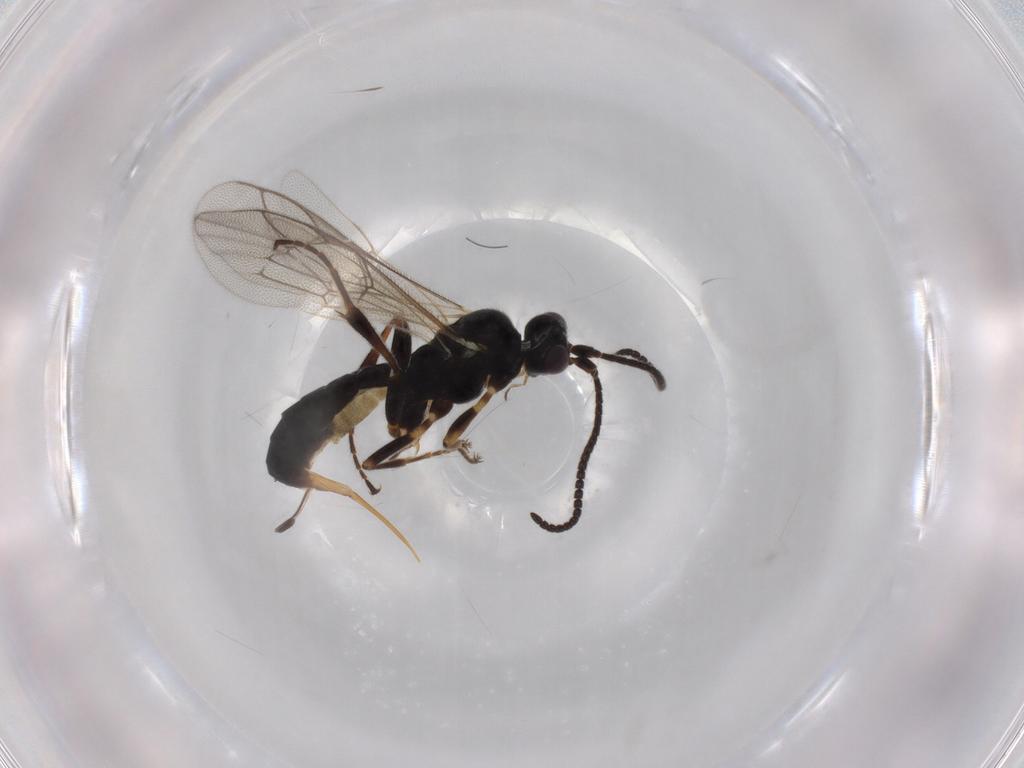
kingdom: Animalia
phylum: Arthropoda
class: Insecta
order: Hymenoptera
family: Ichneumonidae
